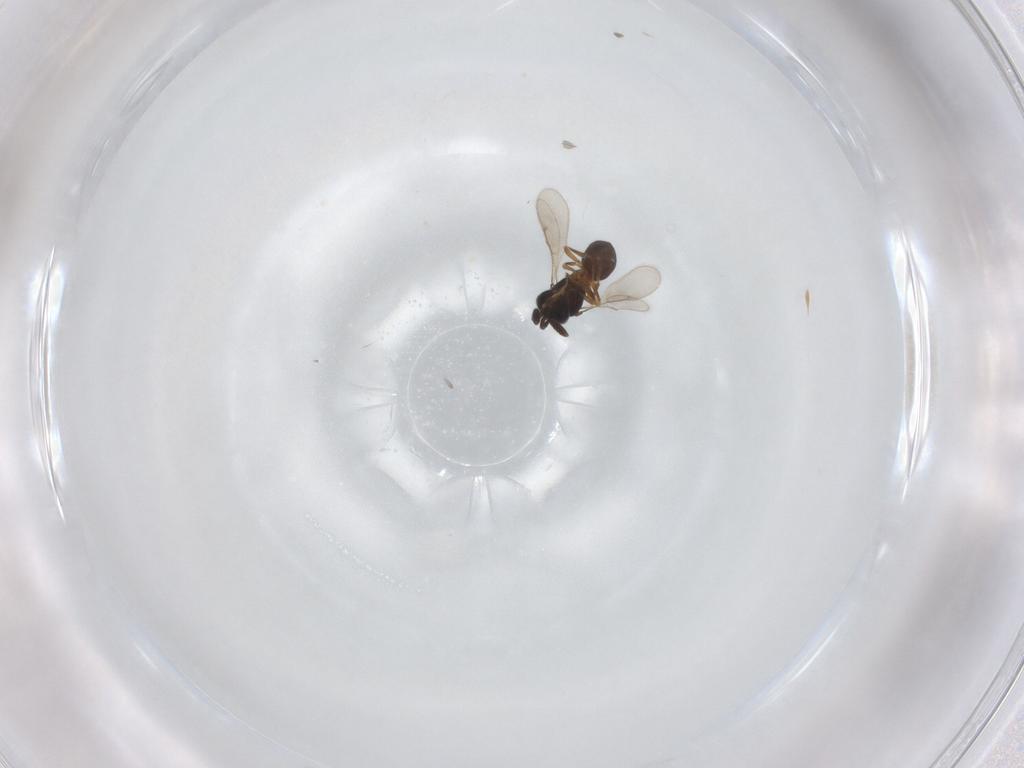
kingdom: Animalia
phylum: Arthropoda
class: Insecta
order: Hymenoptera
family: Scelionidae
